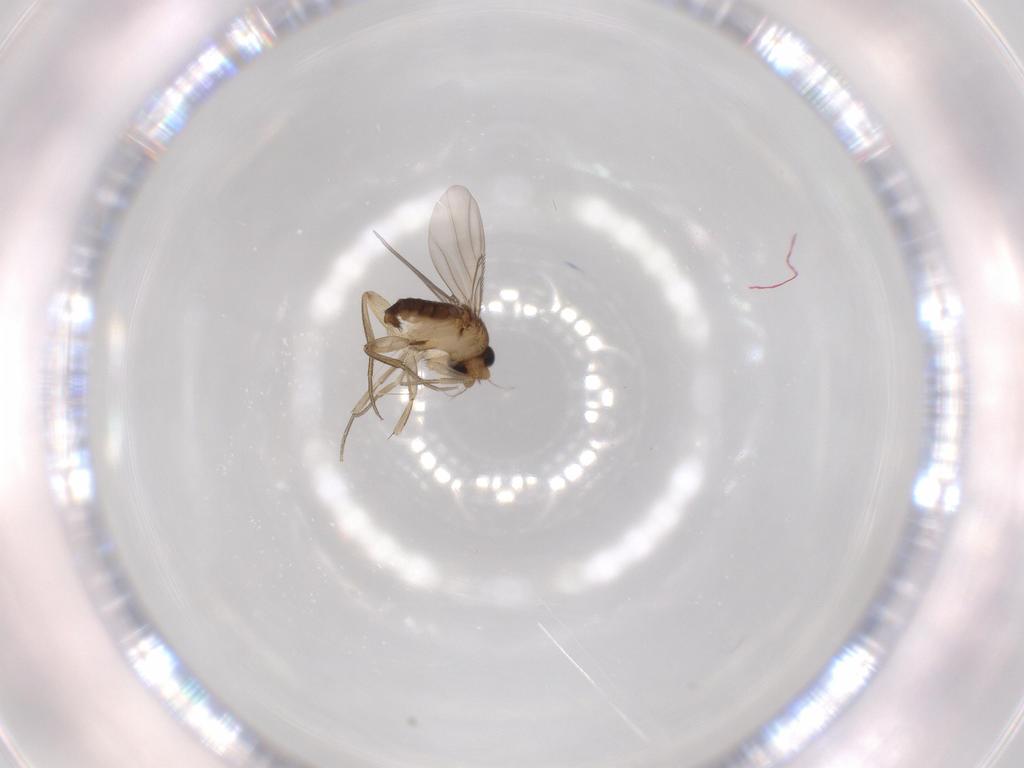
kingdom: Animalia
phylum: Arthropoda
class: Insecta
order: Diptera
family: Phoridae
